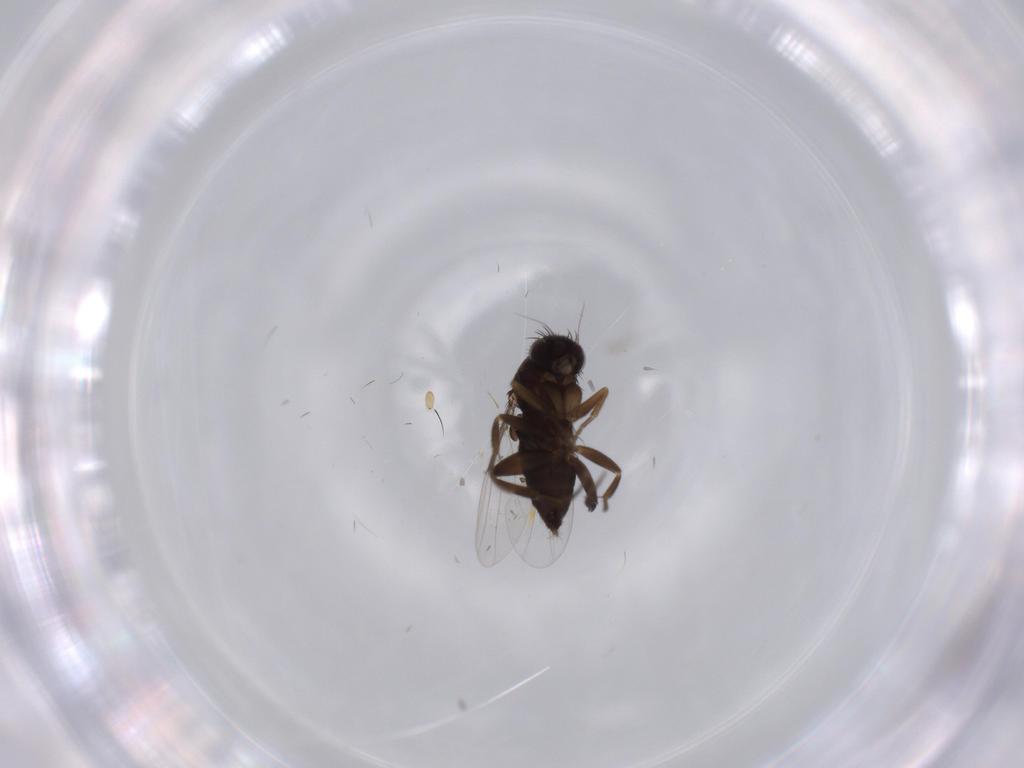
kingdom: Animalia
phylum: Arthropoda
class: Insecta
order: Diptera
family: Phoridae
